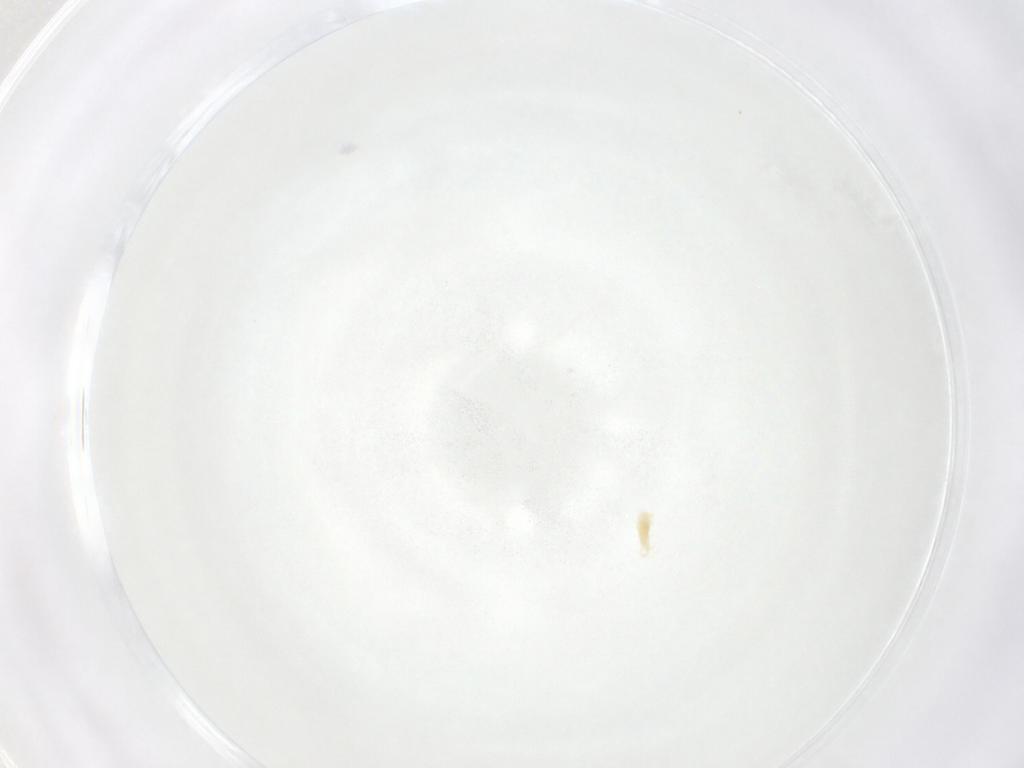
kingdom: Animalia
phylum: Arthropoda
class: Arachnida
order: Trombidiformes
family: Tetranychidae
